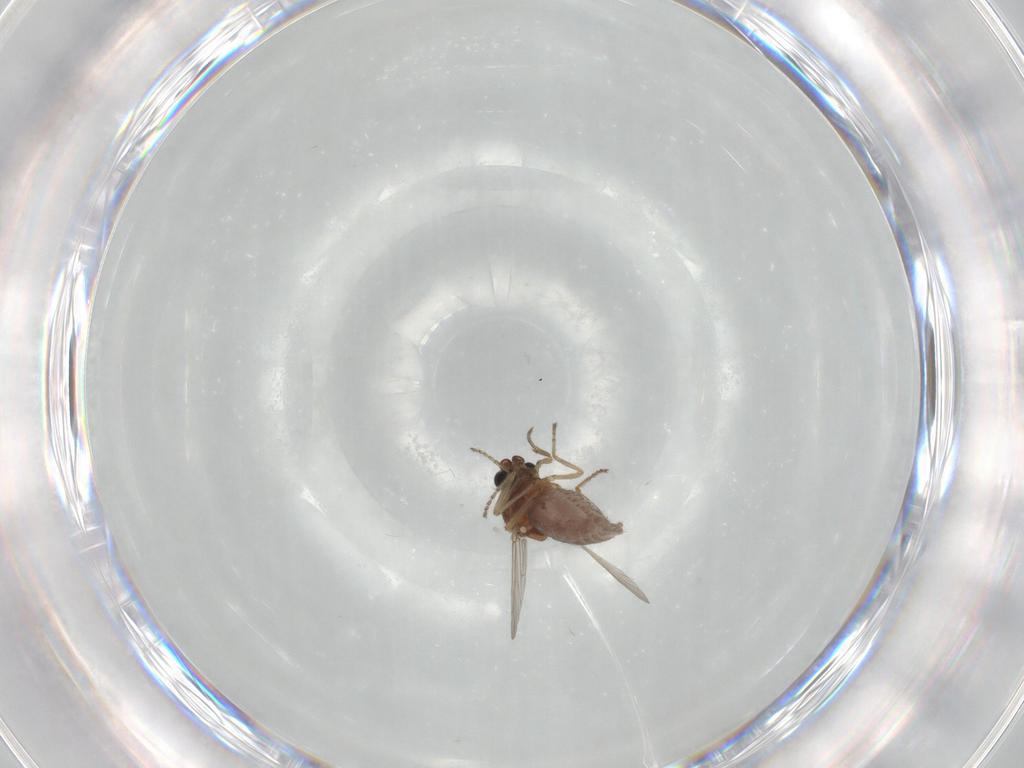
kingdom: Animalia
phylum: Arthropoda
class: Insecta
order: Diptera
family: Ceratopogonidae
